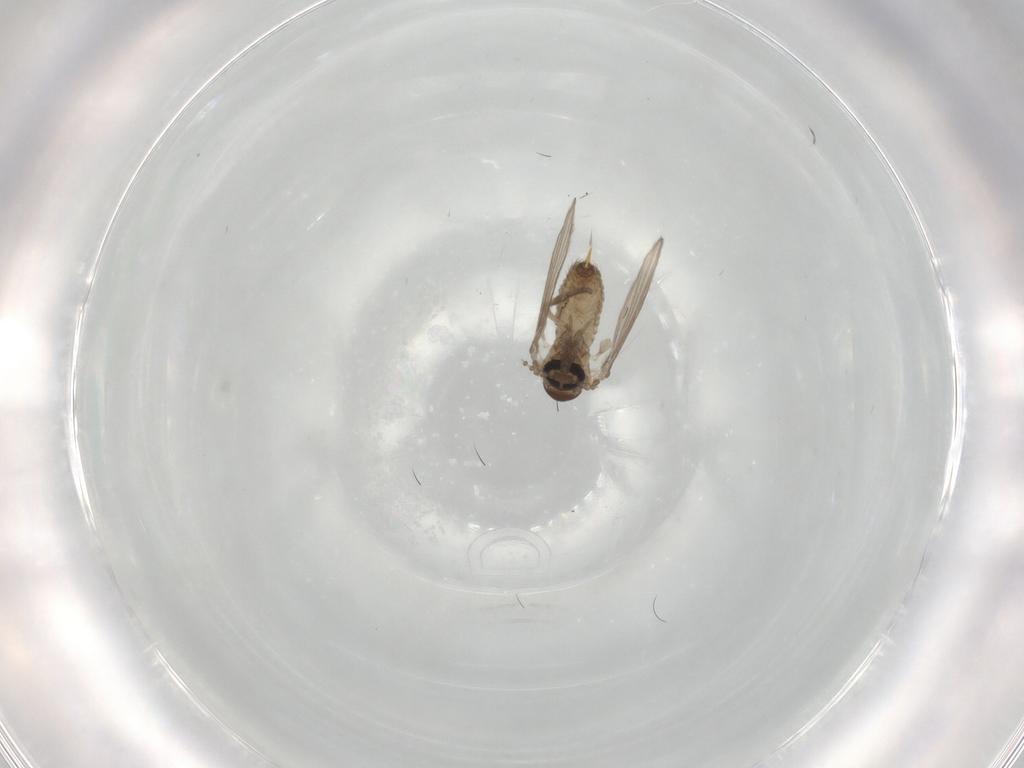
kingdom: Animalia
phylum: Arthropoda
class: Insecta
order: Diptera
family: Psychodidae
